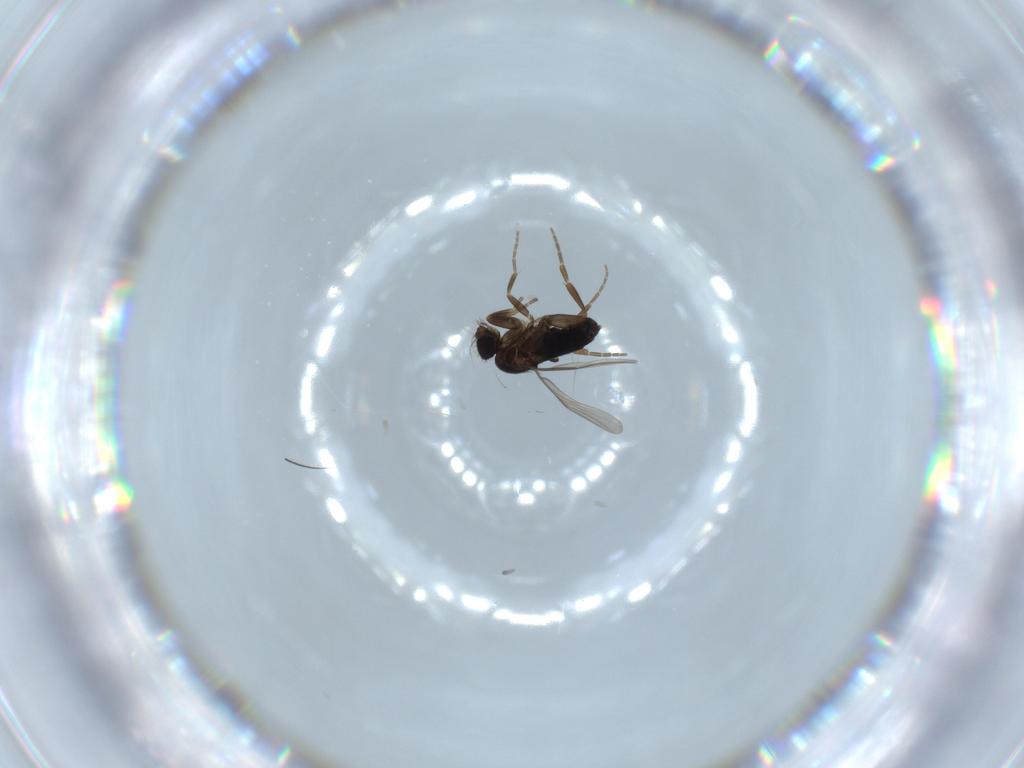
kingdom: Animalia
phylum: Arthropoda
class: Insecta
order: Diptera
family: Phoridae
